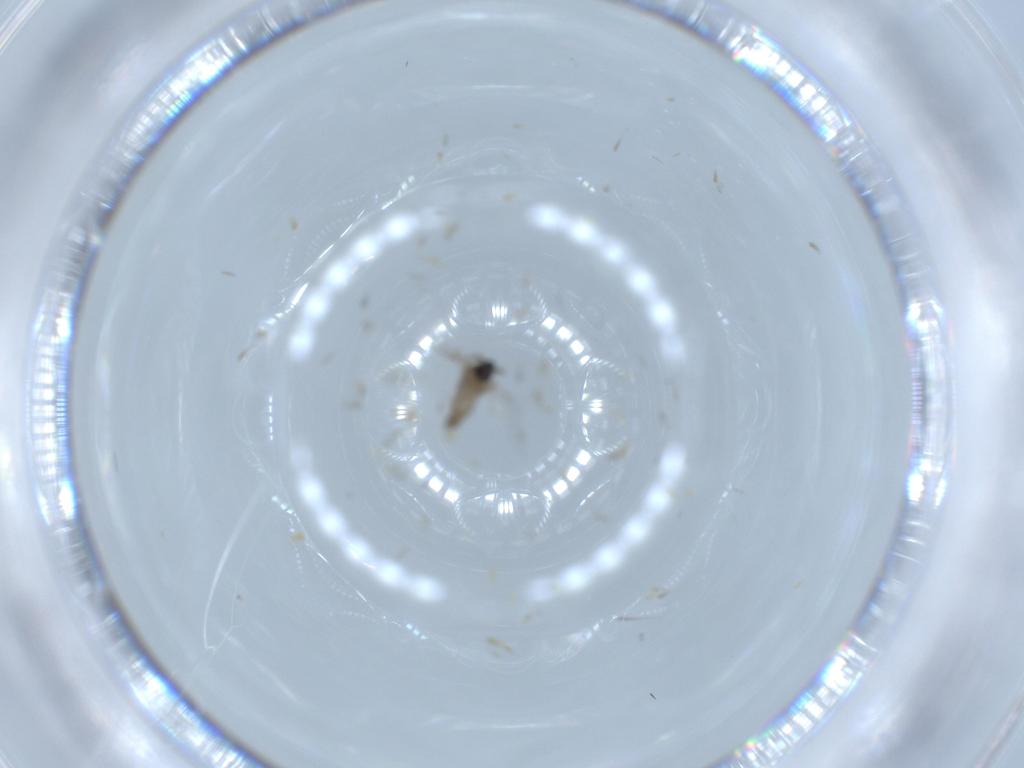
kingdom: Animalia
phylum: Arthropoda
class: Insecta
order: Diptera
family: Cecidomyiidae
